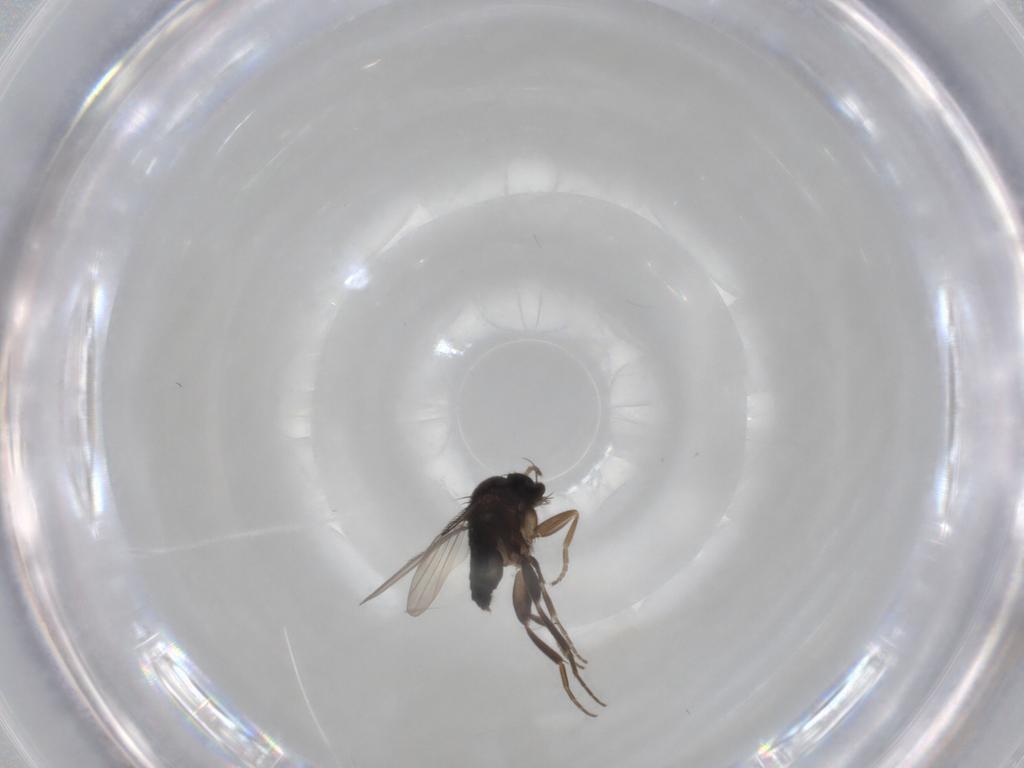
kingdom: Animalia
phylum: Arthropoda
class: Insecta
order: Diptera
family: Phoridae
